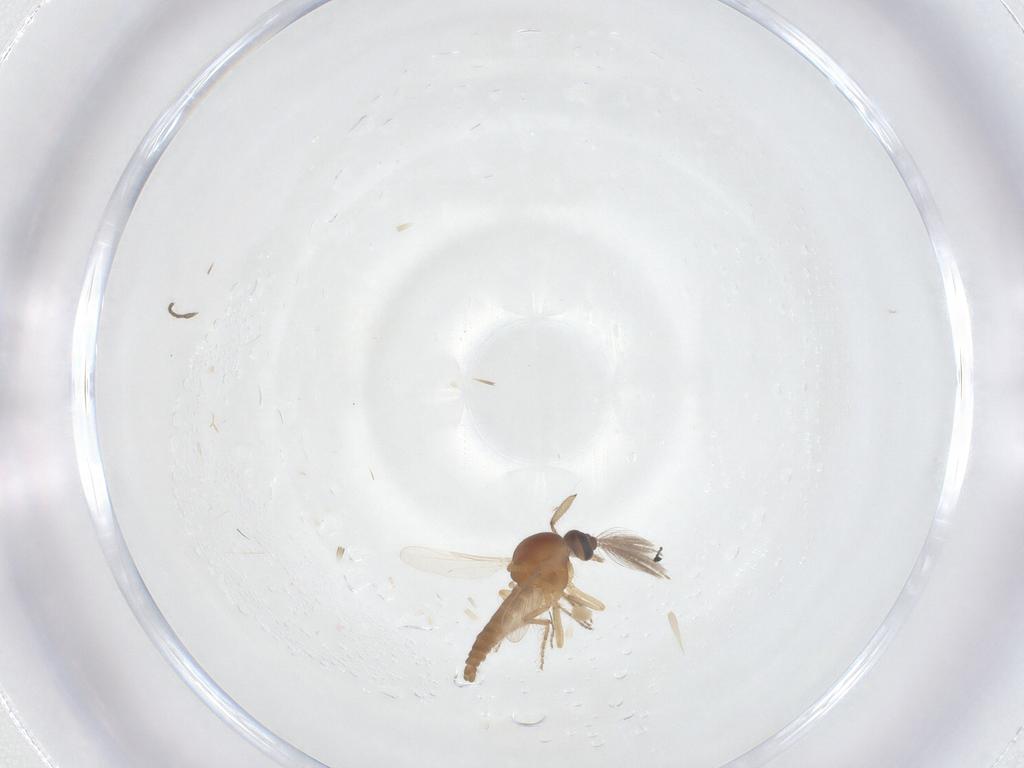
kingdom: Animalia
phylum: Arthropoda
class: Insecta
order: Diptera
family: Ceratopogonidae
